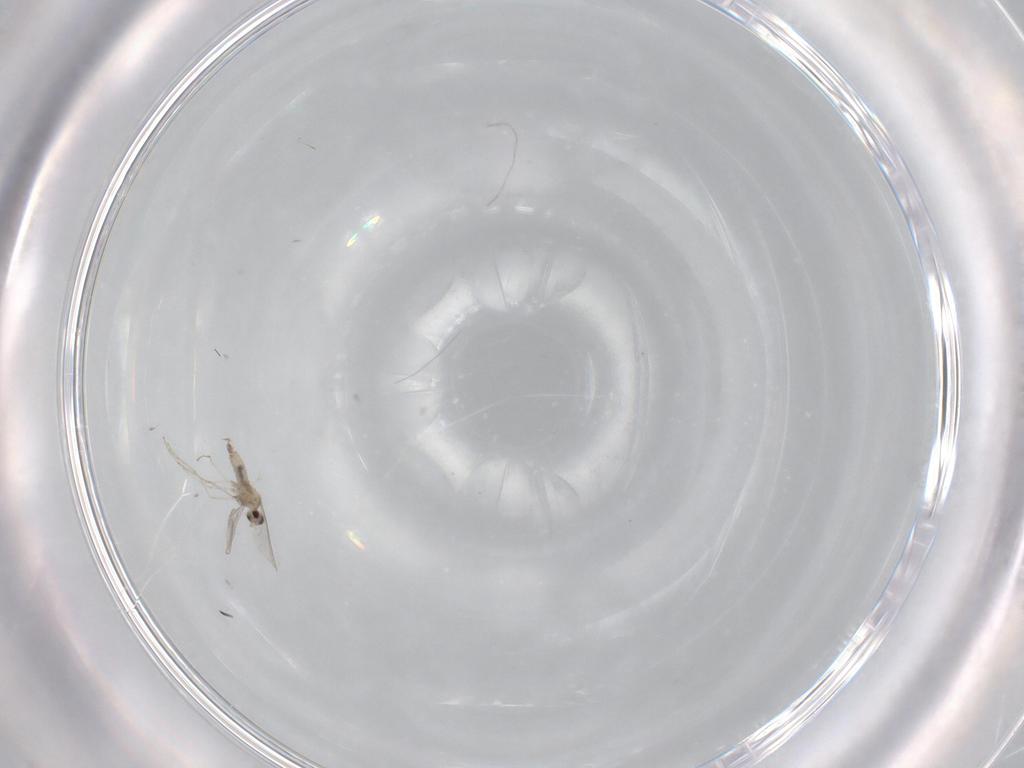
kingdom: Animalia
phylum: Arthropoda
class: Insecta
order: Diptera
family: Cecidomyiidae
